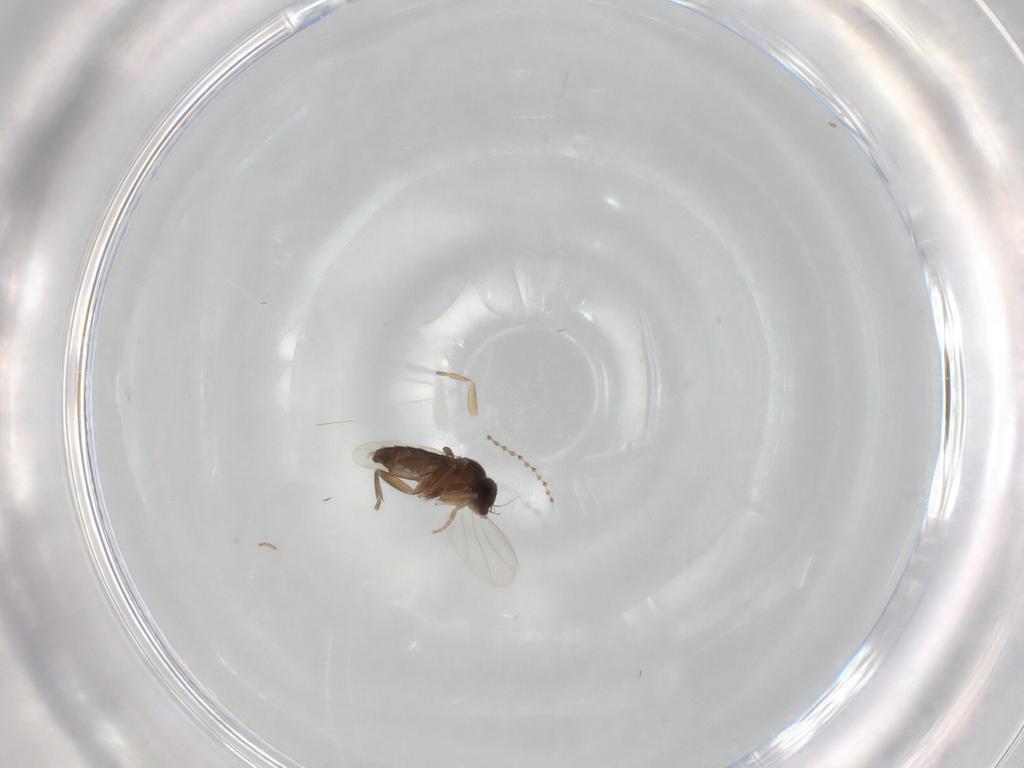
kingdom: Animalia
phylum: Arthropoda
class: Insecta
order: Diptera
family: Phoridae
